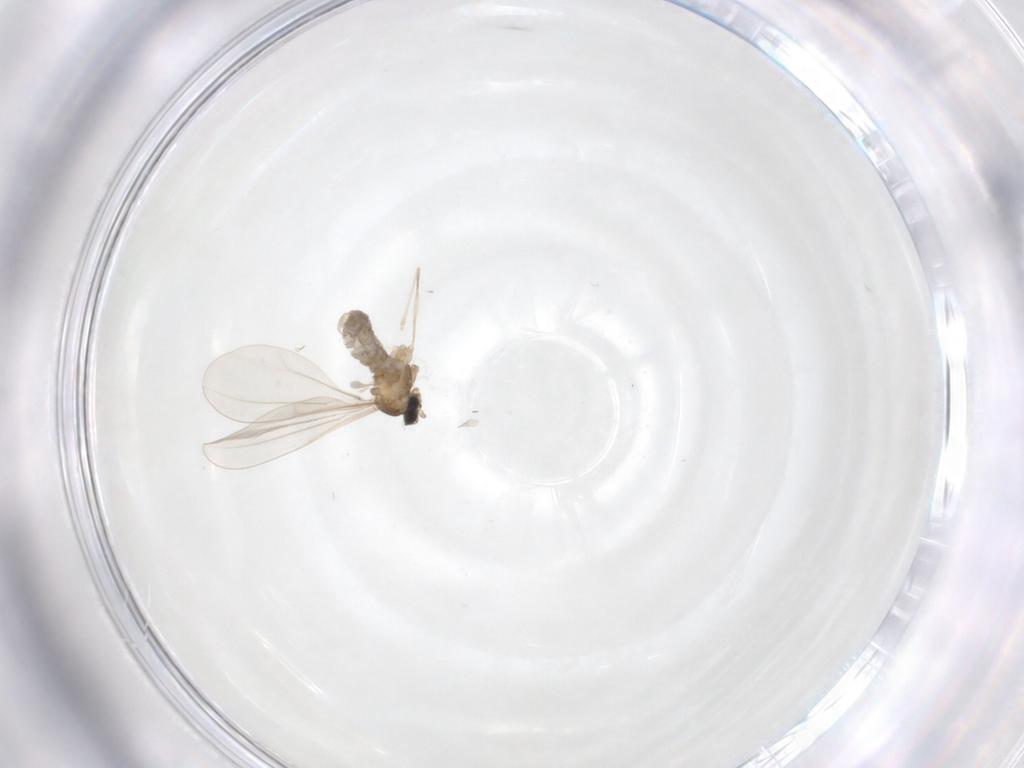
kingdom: Animalia
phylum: Arthropoda
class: Insecta
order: Diptera
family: Cecidomyiidae
